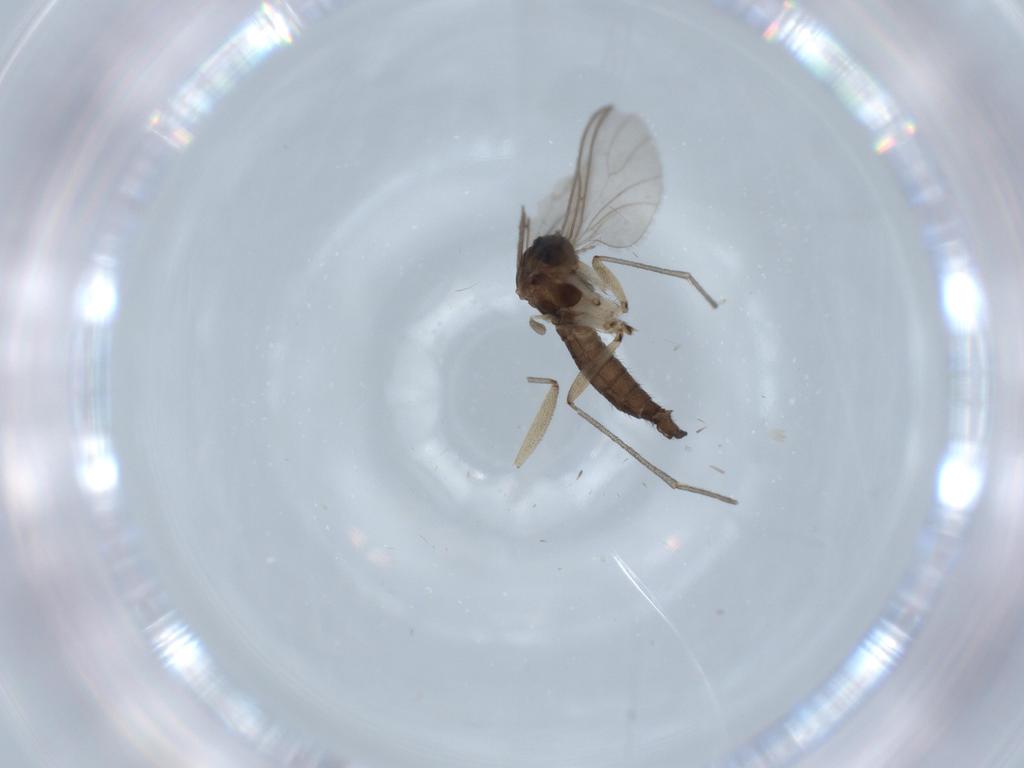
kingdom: Animalia
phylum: Arthropoda
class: Insecta
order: Diptera
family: Sciaridae
